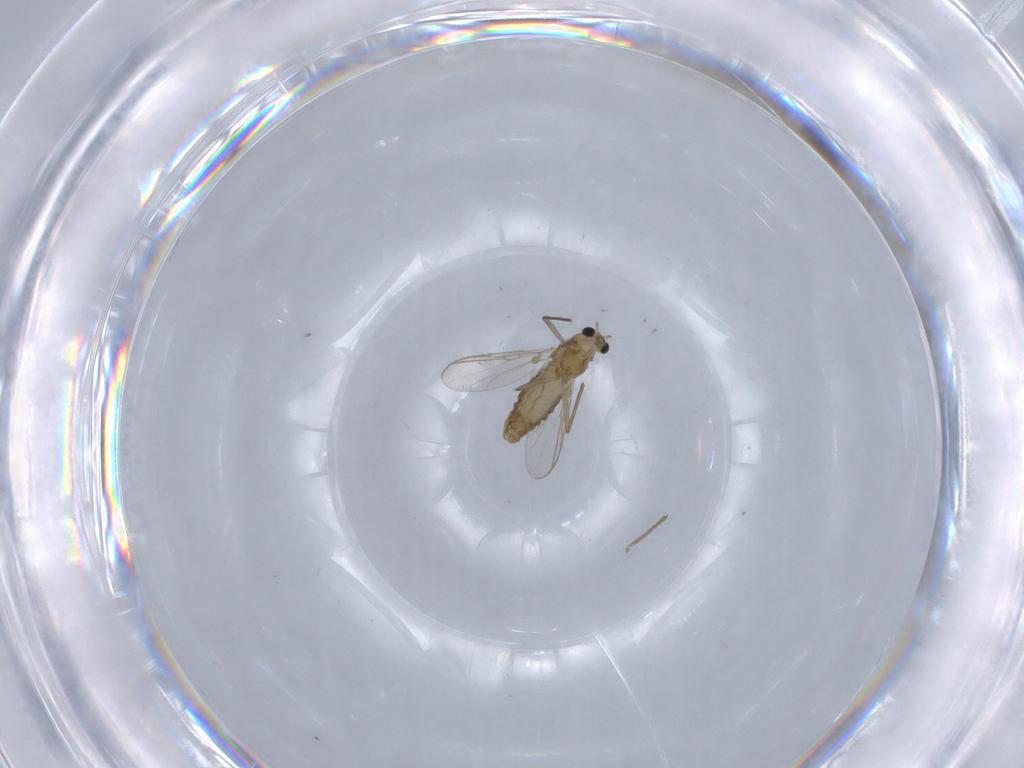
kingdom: Animalia
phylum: Arthropoda
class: Insecta
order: Diptera
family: Chironomidae
